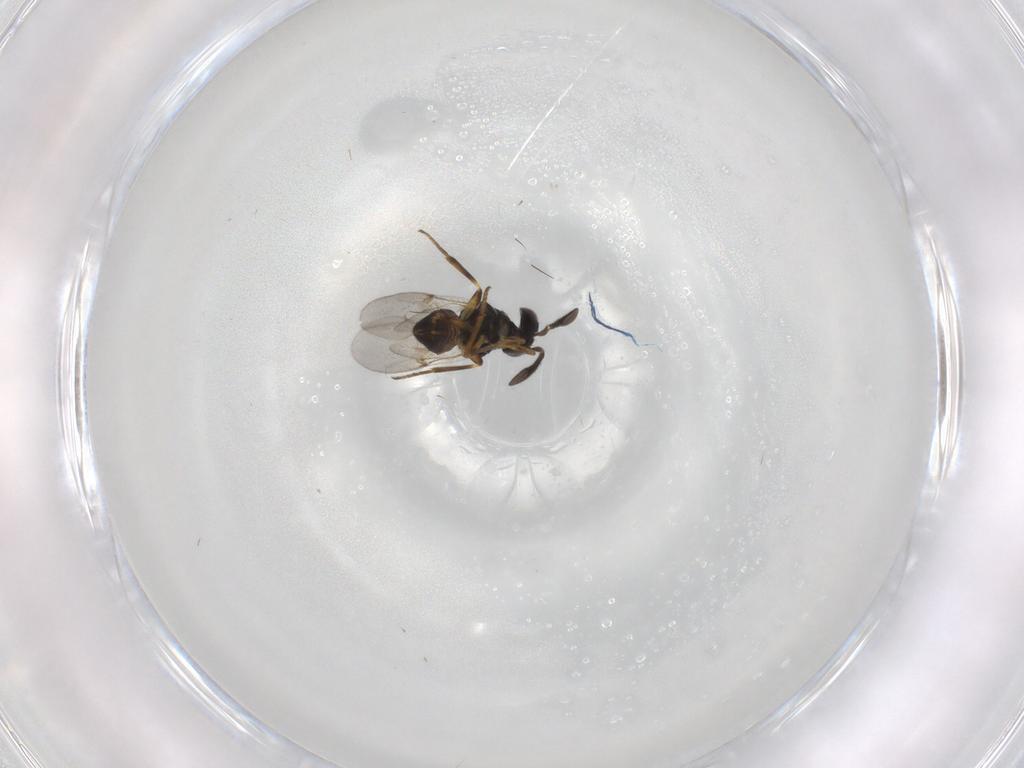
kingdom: Animalia
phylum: Arthropoda
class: Insecta
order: Hymenoptera
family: Encyrtidae
